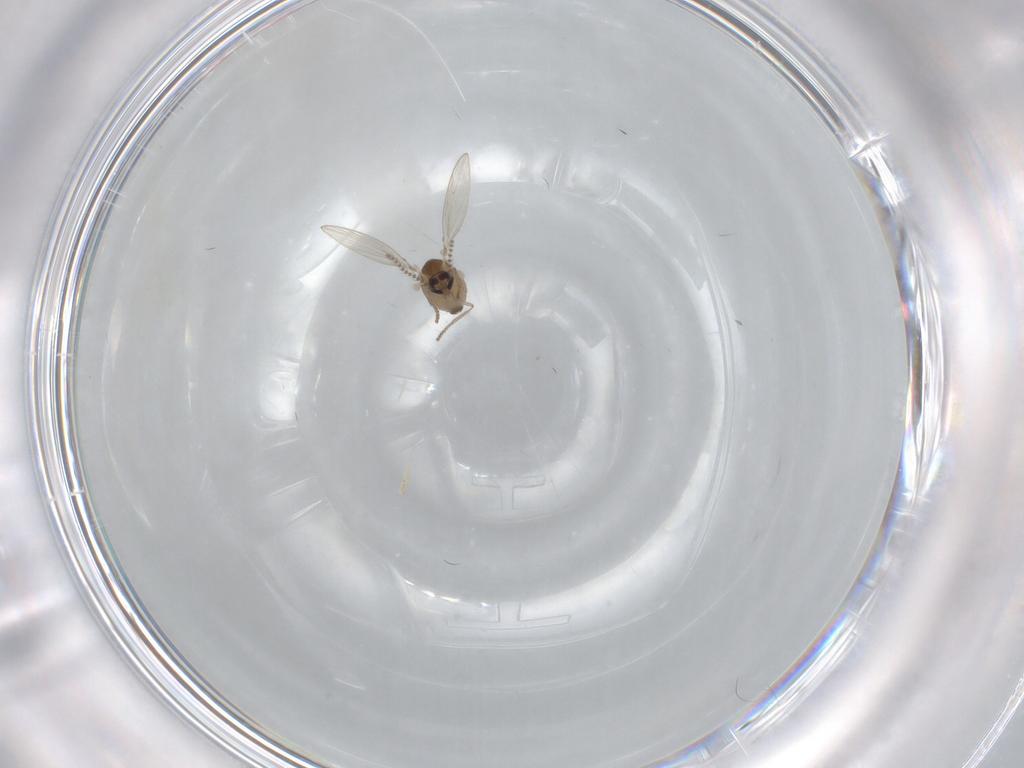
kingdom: Animalia
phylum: Arthropoda
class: Insecta
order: Diptera
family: Psychodidae
